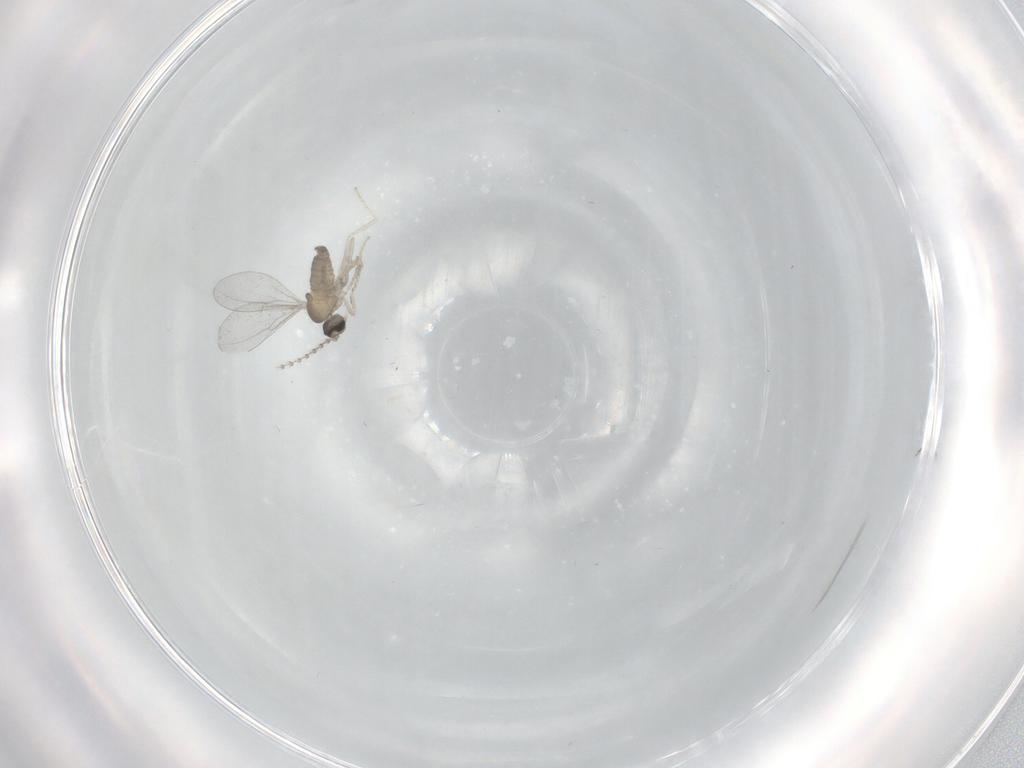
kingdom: Animalia
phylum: Arthropoda
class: Insecta
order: Diptera
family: Cecidomyiidae
